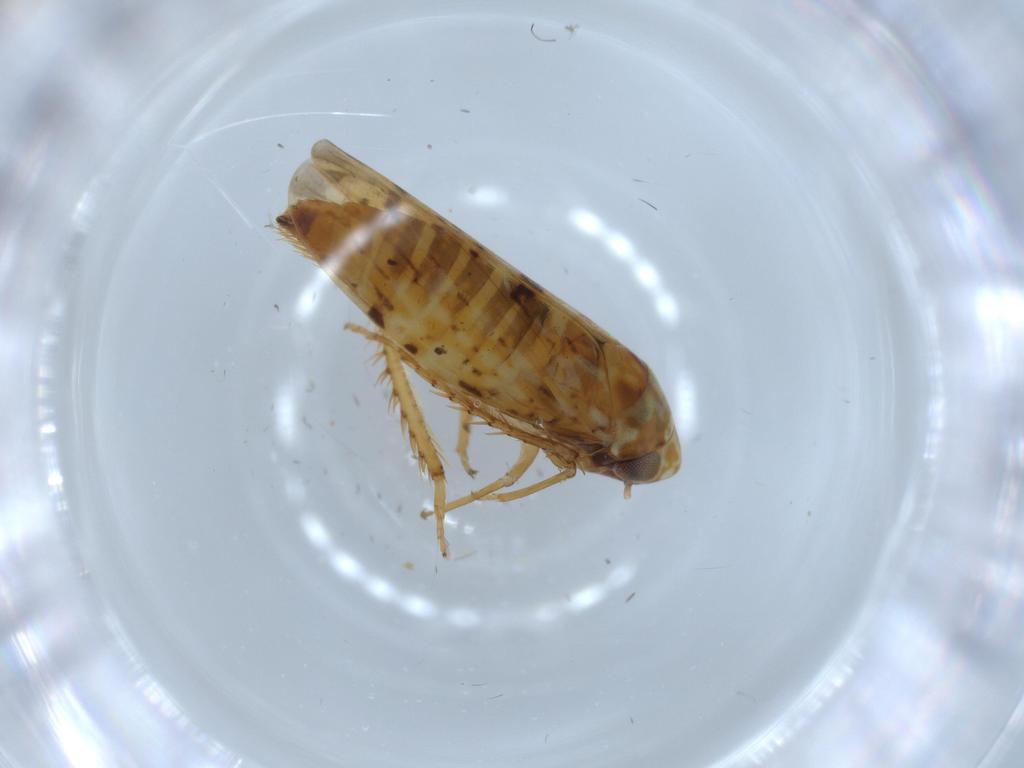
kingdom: Animalia
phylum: Arthropoda
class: Insecta
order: Hemiptera
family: Cicadellidae
